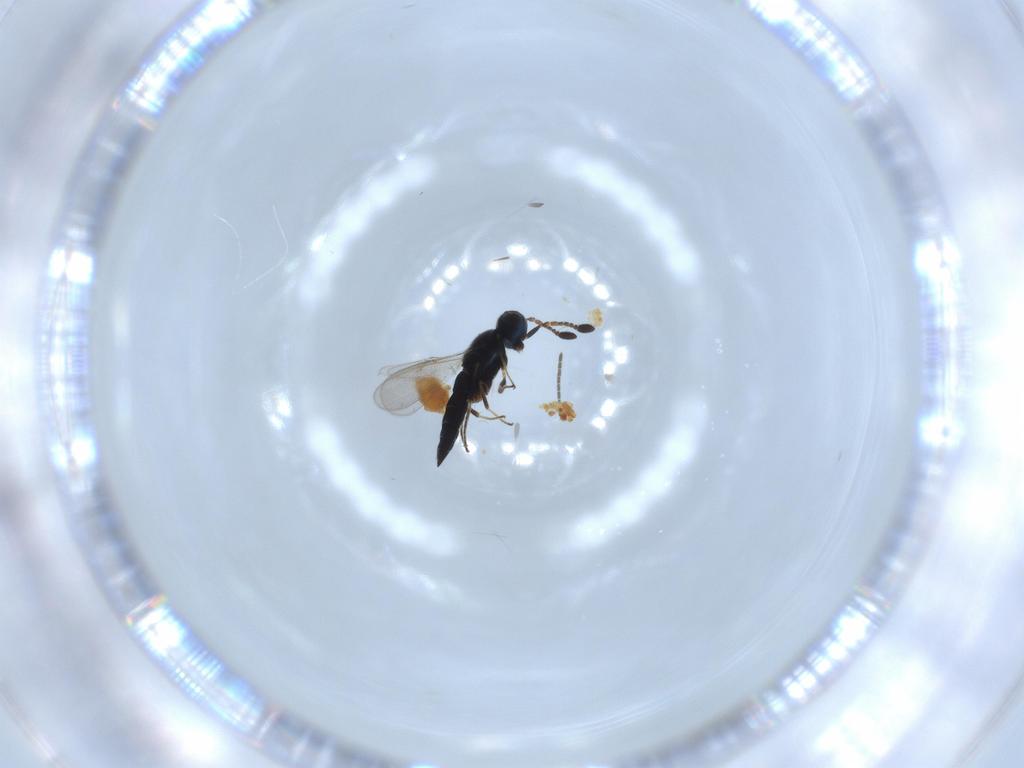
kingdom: Animalia
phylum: Arthropoda
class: Insecta
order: Hymenoptera
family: Scelionidae
